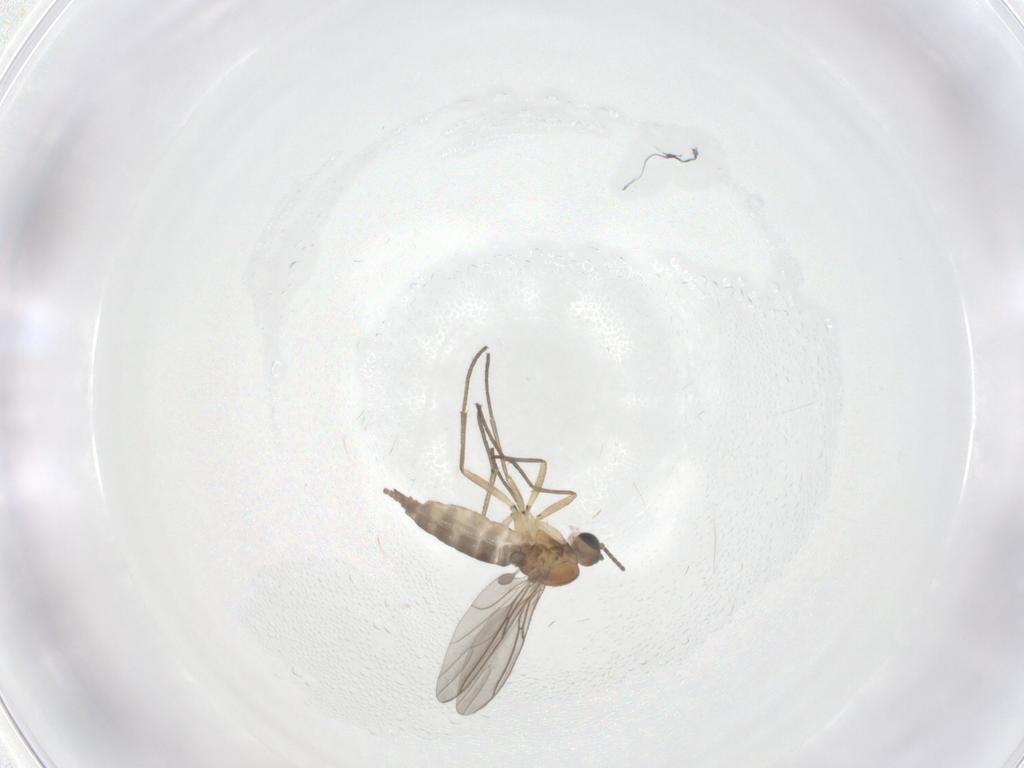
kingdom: Animalia
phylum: Arthropoda
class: Insecta
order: Diptera
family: Sciaridae
